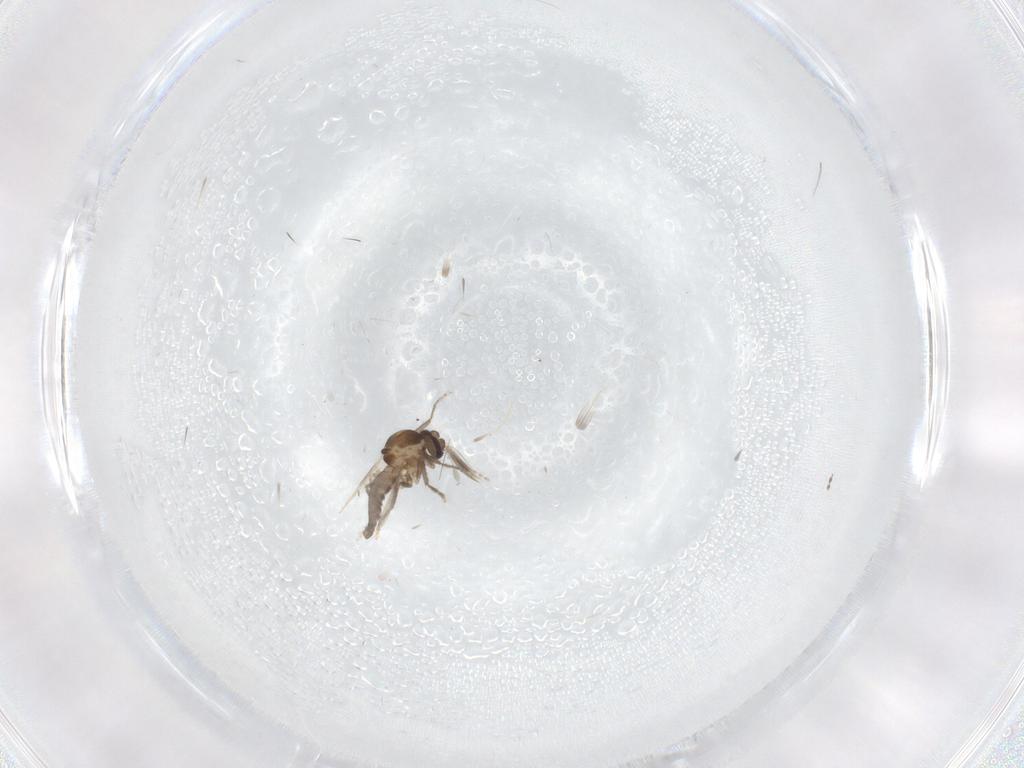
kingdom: Animalia
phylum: Arthropoda
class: Insecta
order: Diptera
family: Ceratopogonidae
